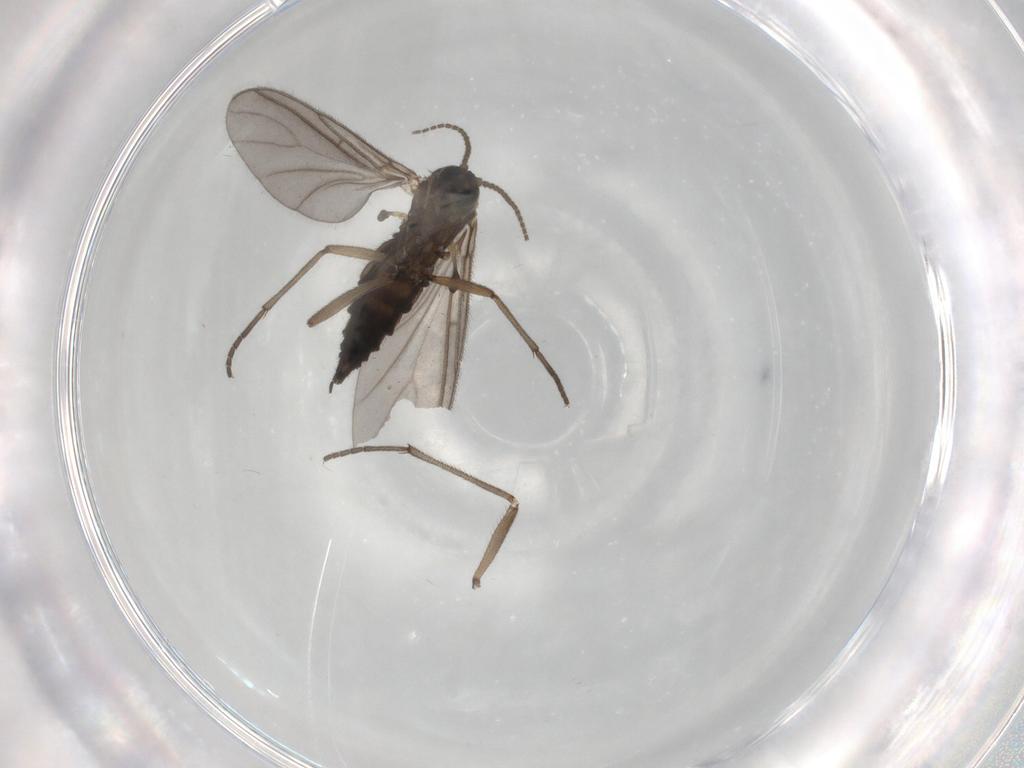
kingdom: Animalia
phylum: Arthropoda
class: Insecta
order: Diptera
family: Sciaridae
